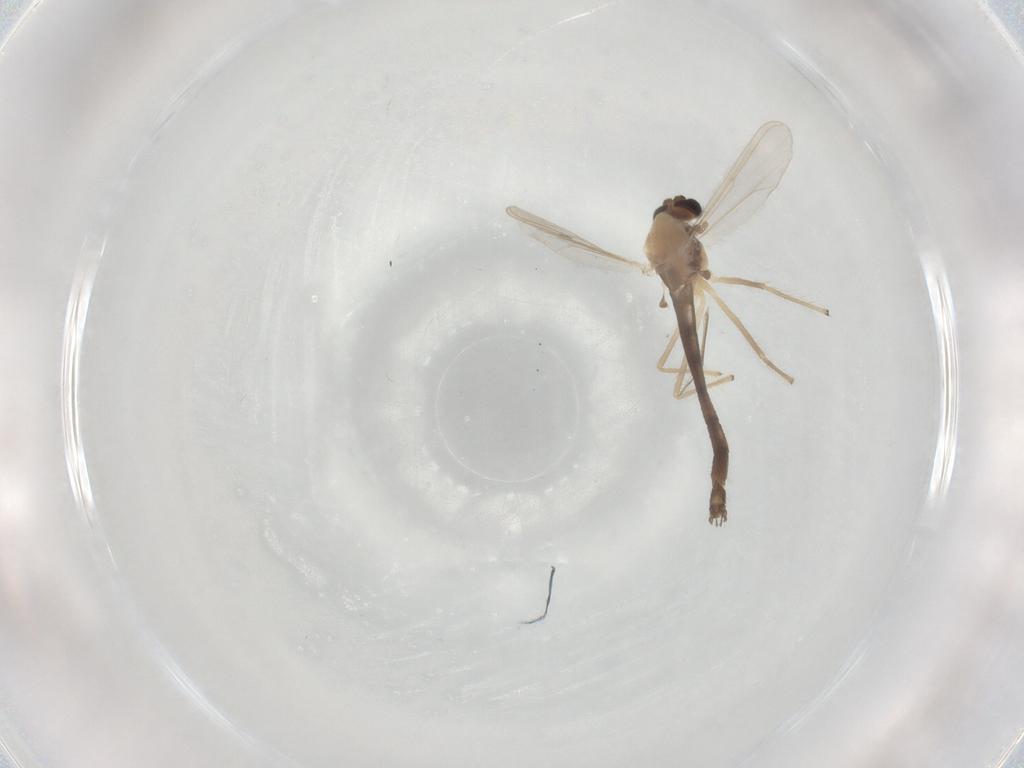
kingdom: Animalia
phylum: Arthropoda
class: Insecta
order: Diptera
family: Chironomidae
